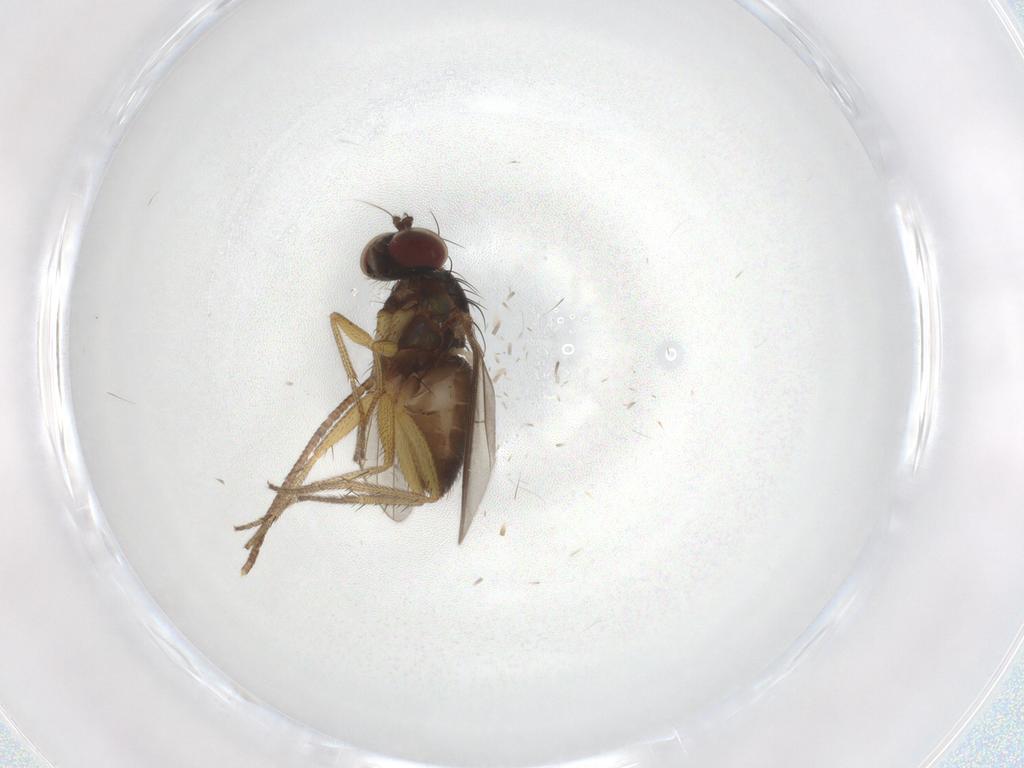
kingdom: Animalia
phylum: Arthropoda
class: Insecta
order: Diptera
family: Dolichopodidae
